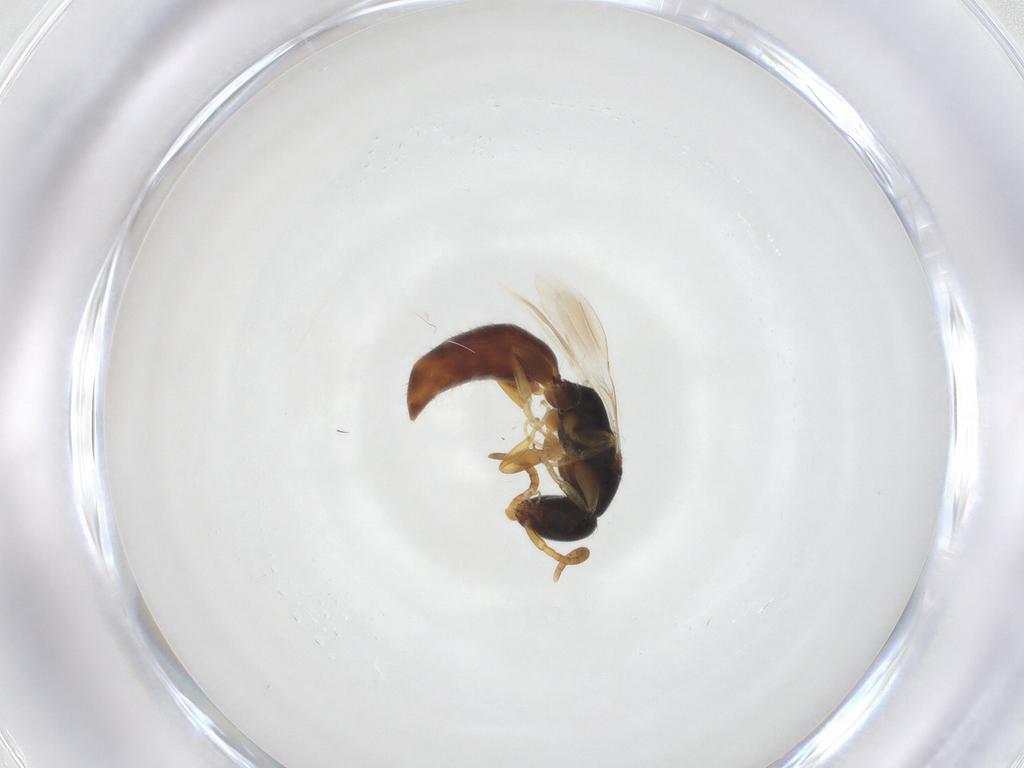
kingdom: Animalia
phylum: Arthropoda
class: Insecta
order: Hymenoptera
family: Bethylidae
